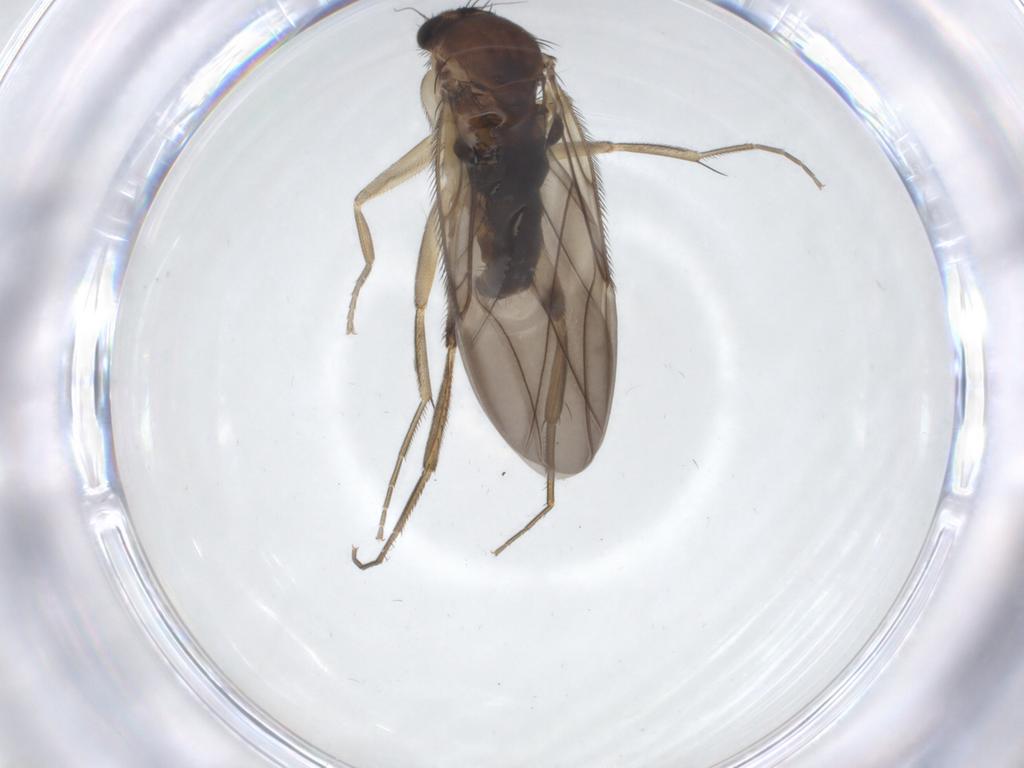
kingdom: Animalia
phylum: Arthropoda
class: Insecta
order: Diptera
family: Phoridae
